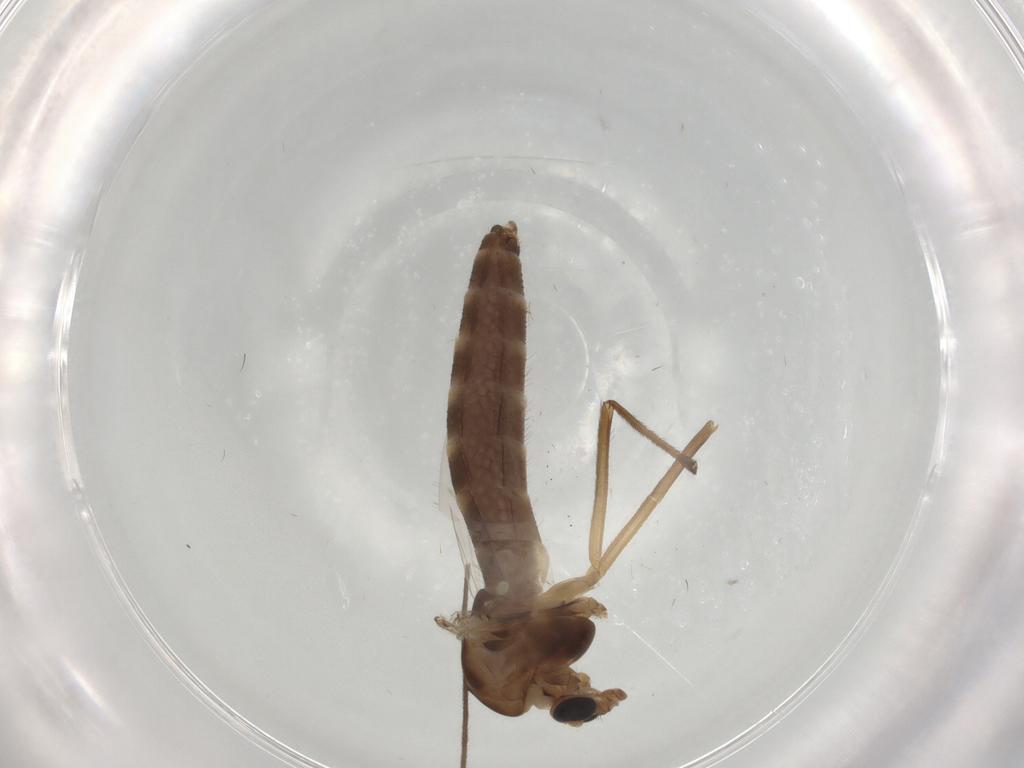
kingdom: Animalia
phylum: Arthropoda
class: Insecta
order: Diptera
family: Chironomidae
